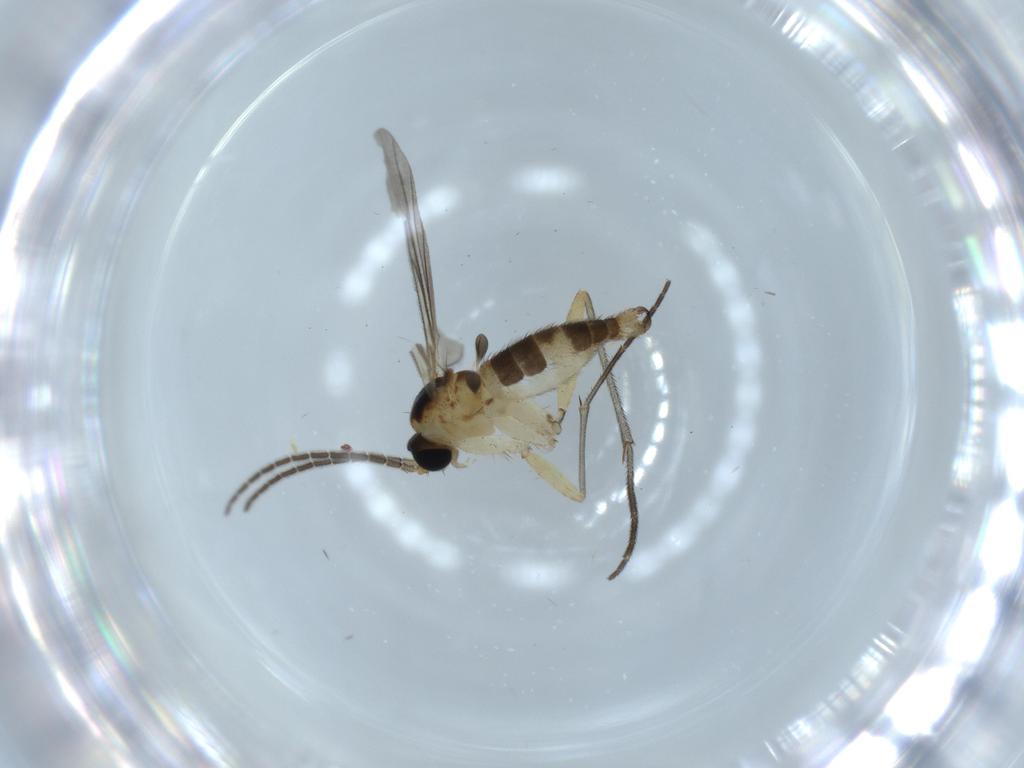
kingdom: Animalia
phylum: Arthropoda
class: Insecta
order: Diptera
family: Sciaridae
